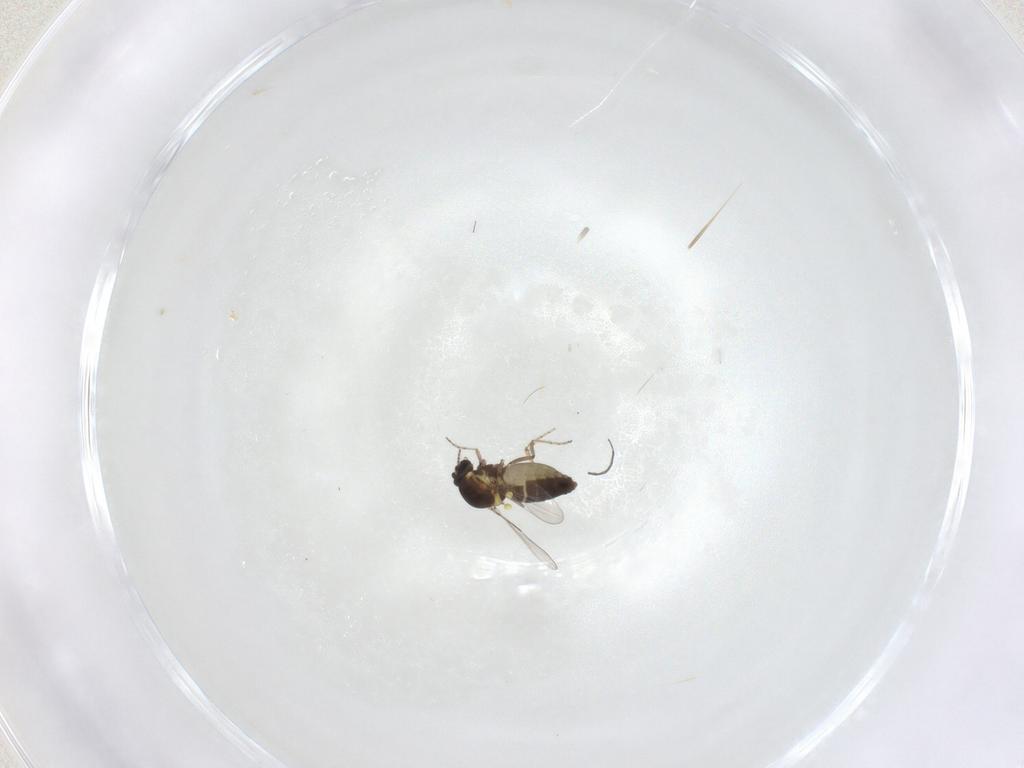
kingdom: Animalia
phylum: Arthropoda
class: Insecta
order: Diptera
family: Ceratopogonidae
